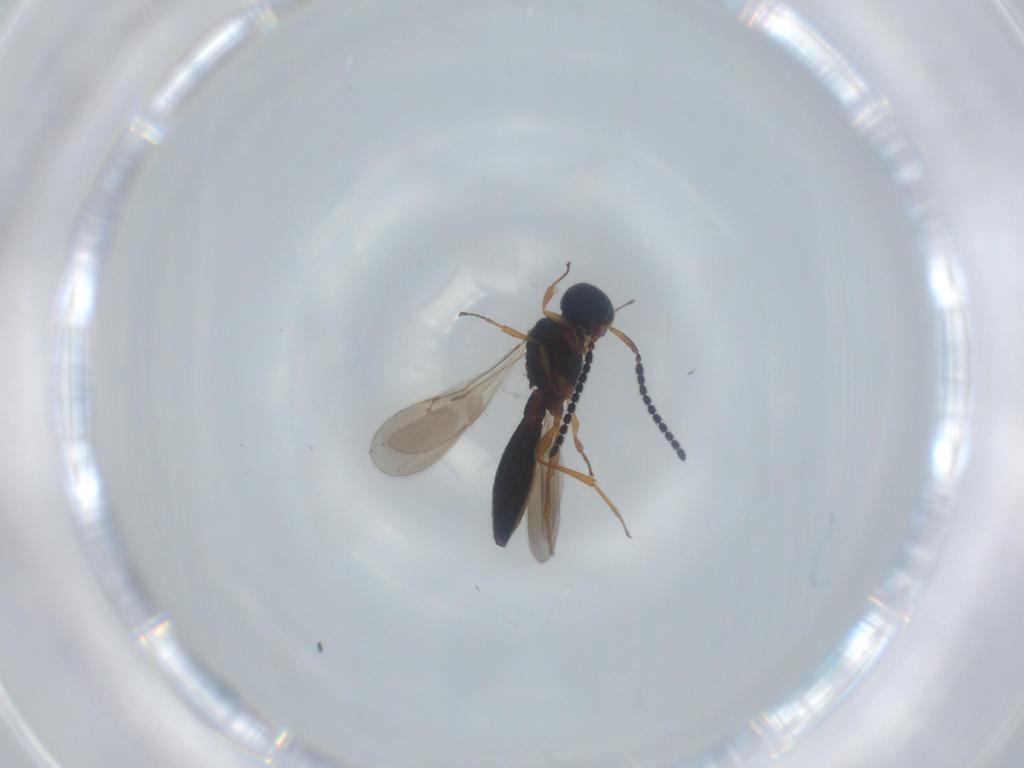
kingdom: Animalia
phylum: Arthropoda
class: Insecta
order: Hymenoptera
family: Scelionidae
